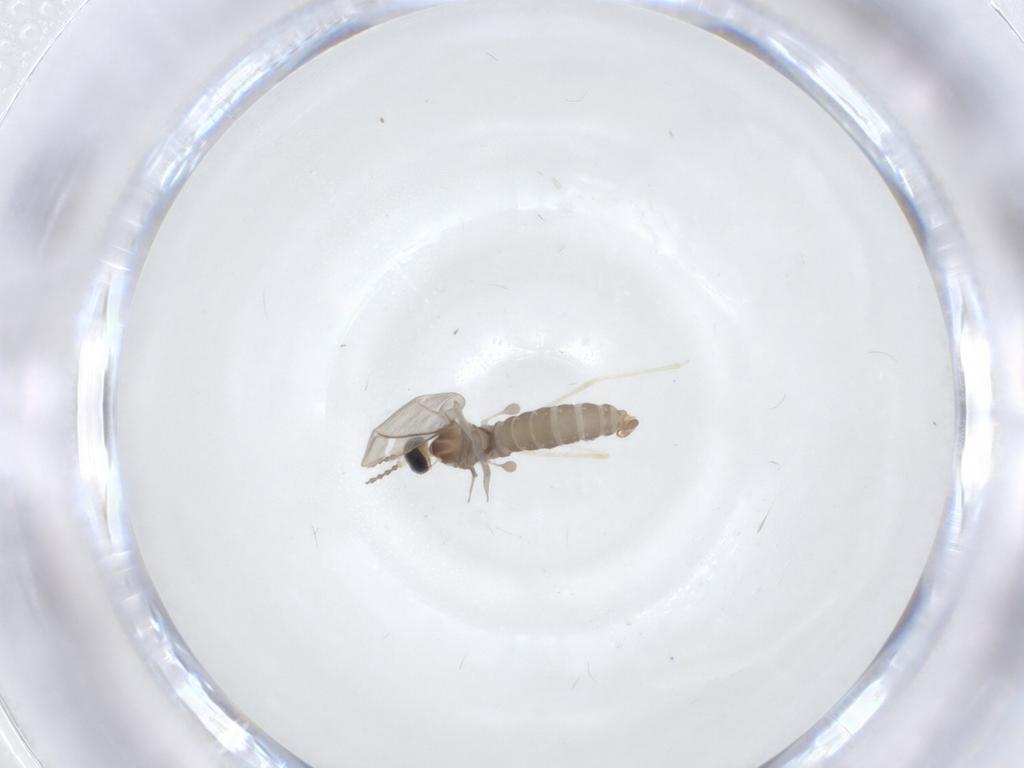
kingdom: Animalia
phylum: Arthropoda
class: Insecta
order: Diptera
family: Cecidomyiidae
